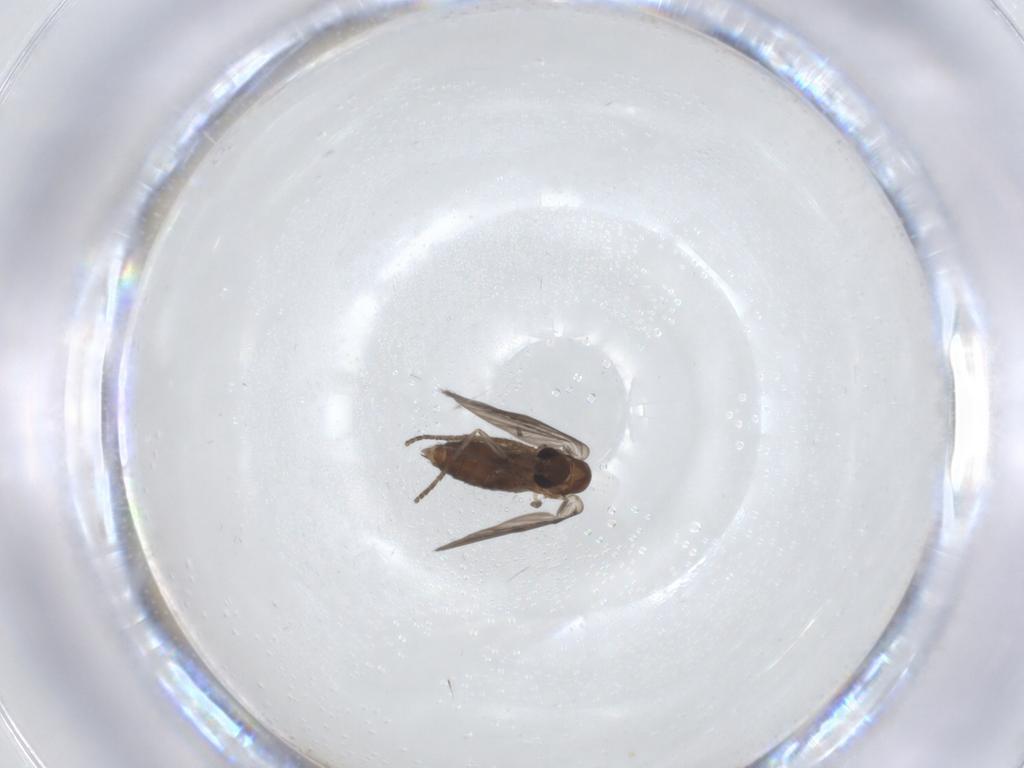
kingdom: Animalia
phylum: Arthropoda
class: Insecta
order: Diptera
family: Psychodidae
